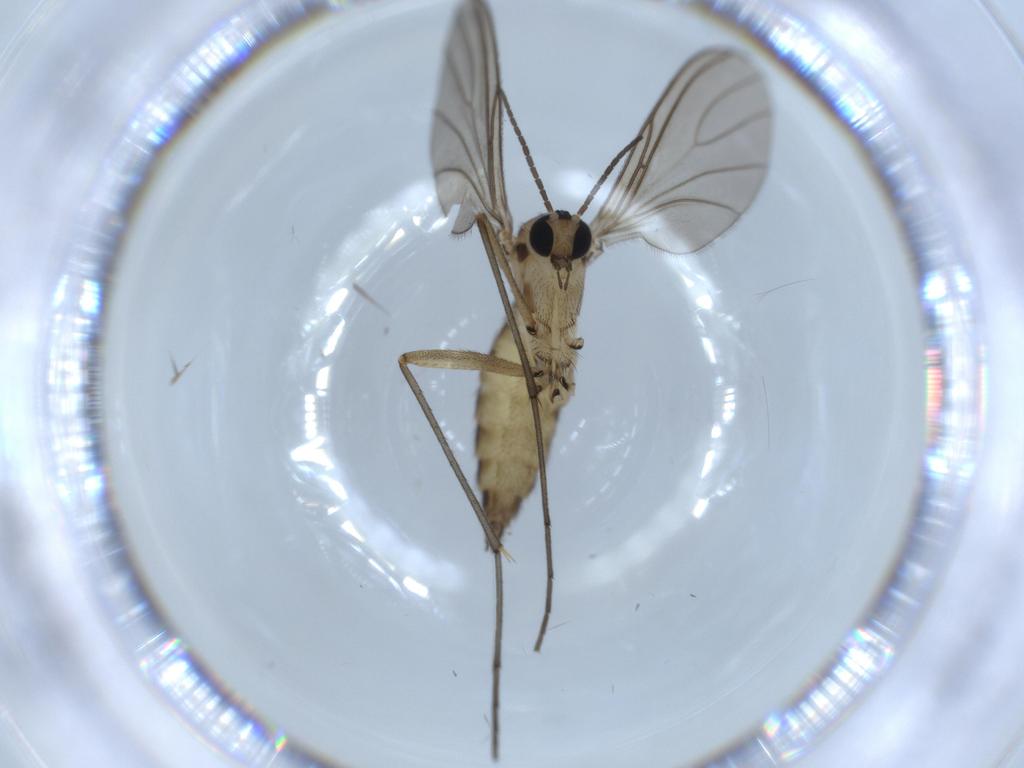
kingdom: Animalia
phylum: Arthropoda
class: Insecta
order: Diptera
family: Sciaridae
